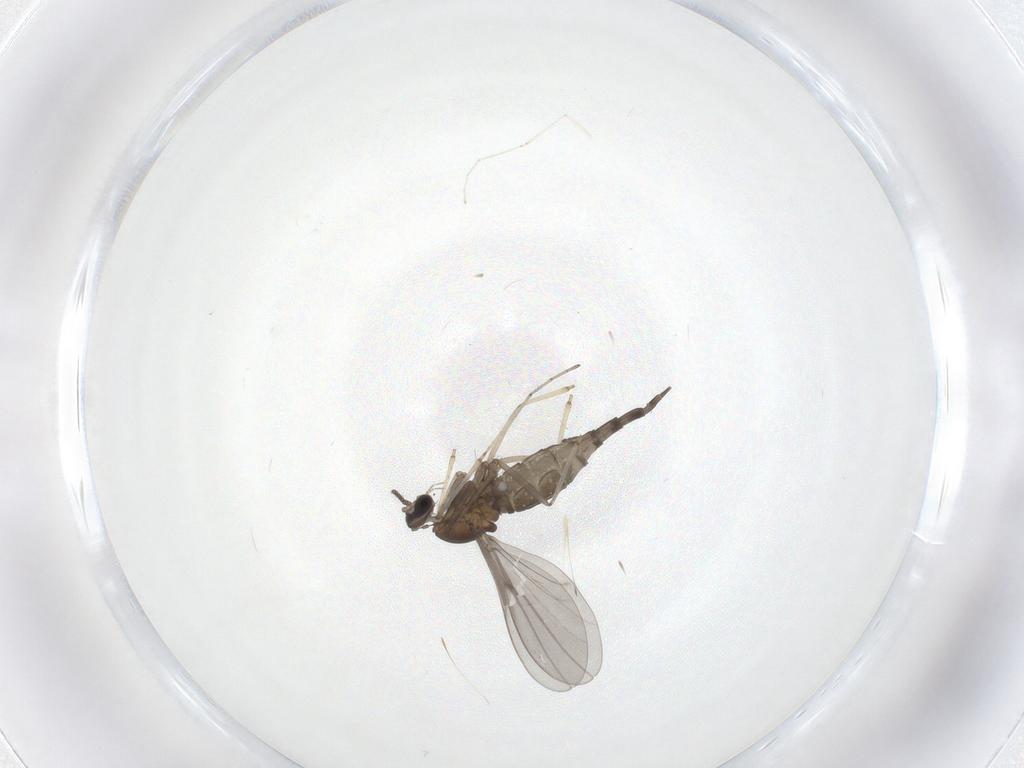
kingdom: Animalia
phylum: Arthropoda
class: Insecta
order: Diptera
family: Cecidomyiidae
